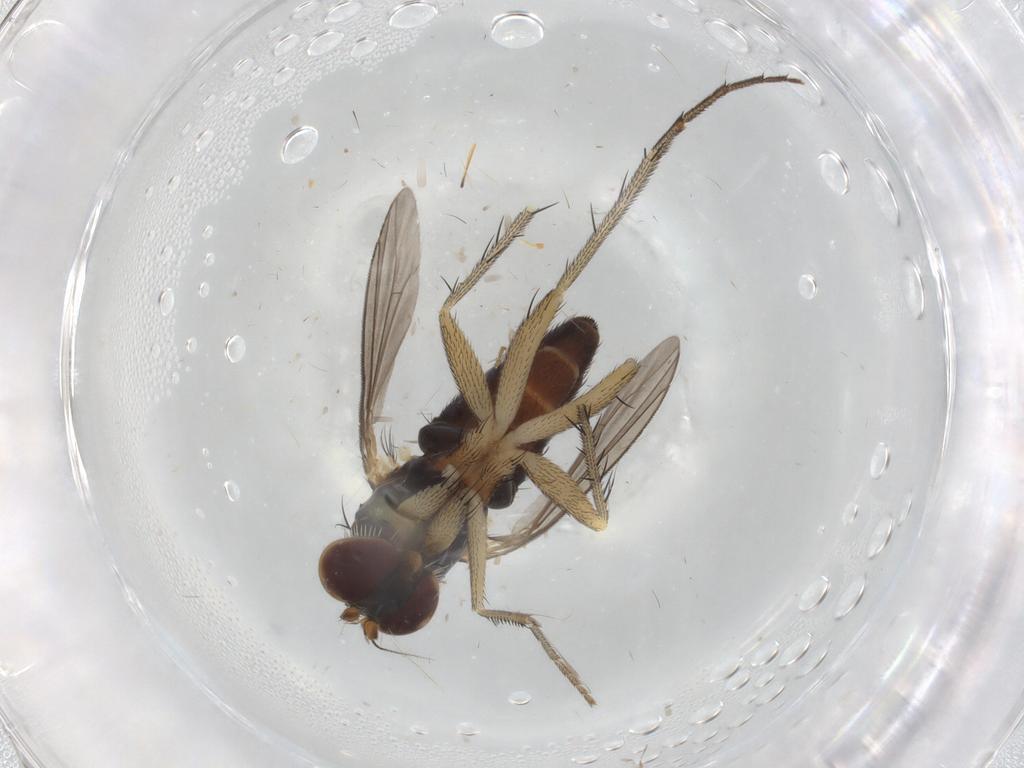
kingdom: Animalia
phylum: Arthropoda
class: Insecta
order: Diptera
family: Dolichopodidae
